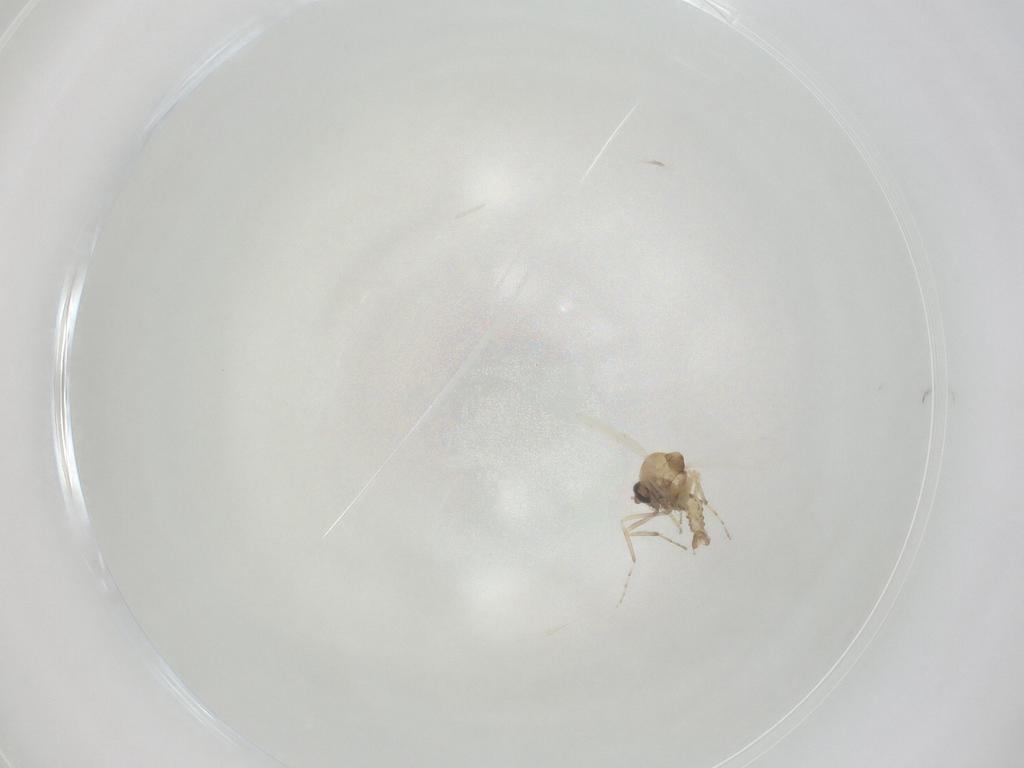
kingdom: Animalia
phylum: Arthropoda
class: Insecta
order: Diptera
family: Ceratopogonidae
